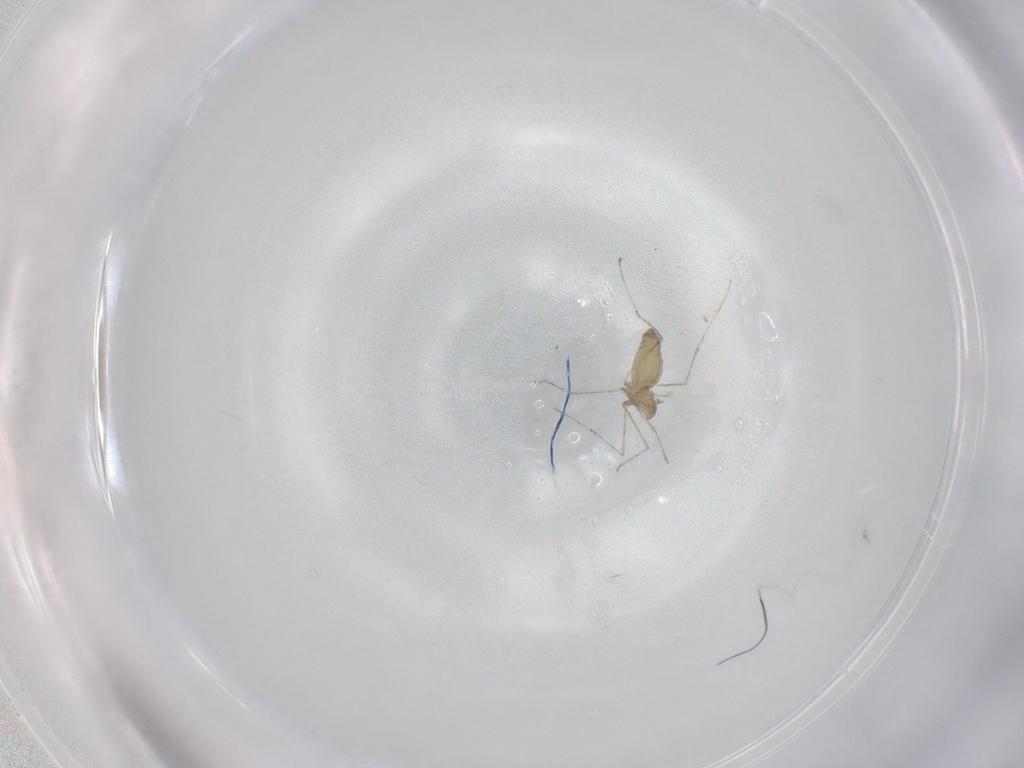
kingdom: Animalia
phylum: Arthropoda
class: Insecta
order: Diptera
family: Cecidomyiidae
